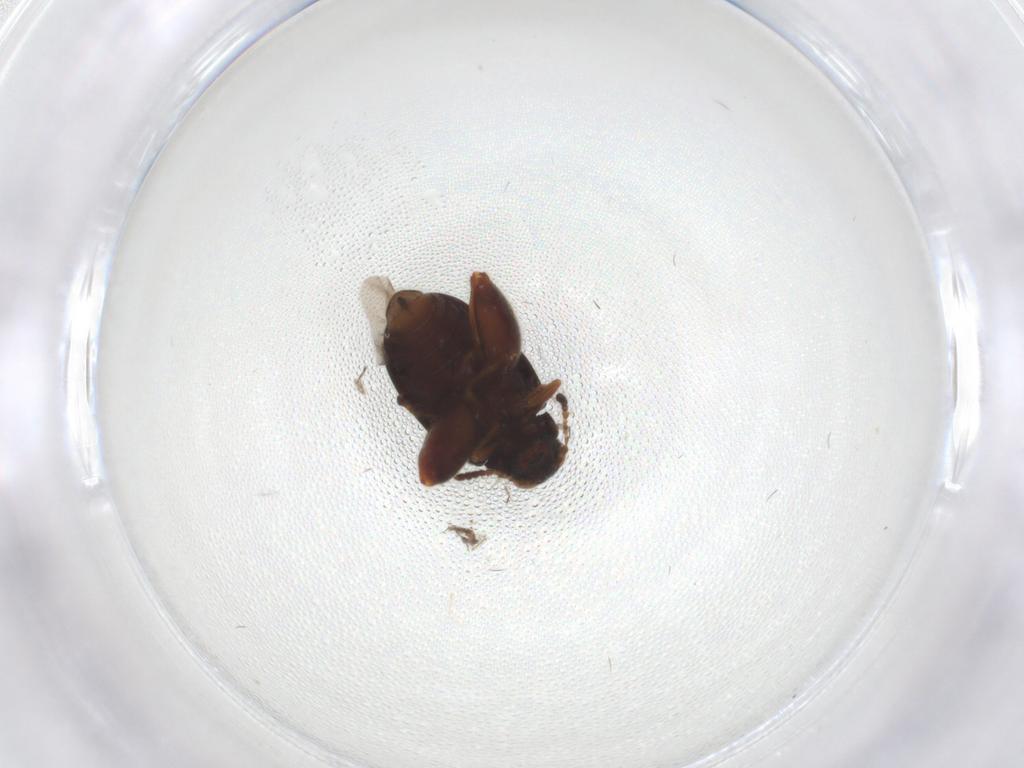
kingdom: Animalia
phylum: Arthropoda
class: Insecta
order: Coleoptera
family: Chrysomelidae
